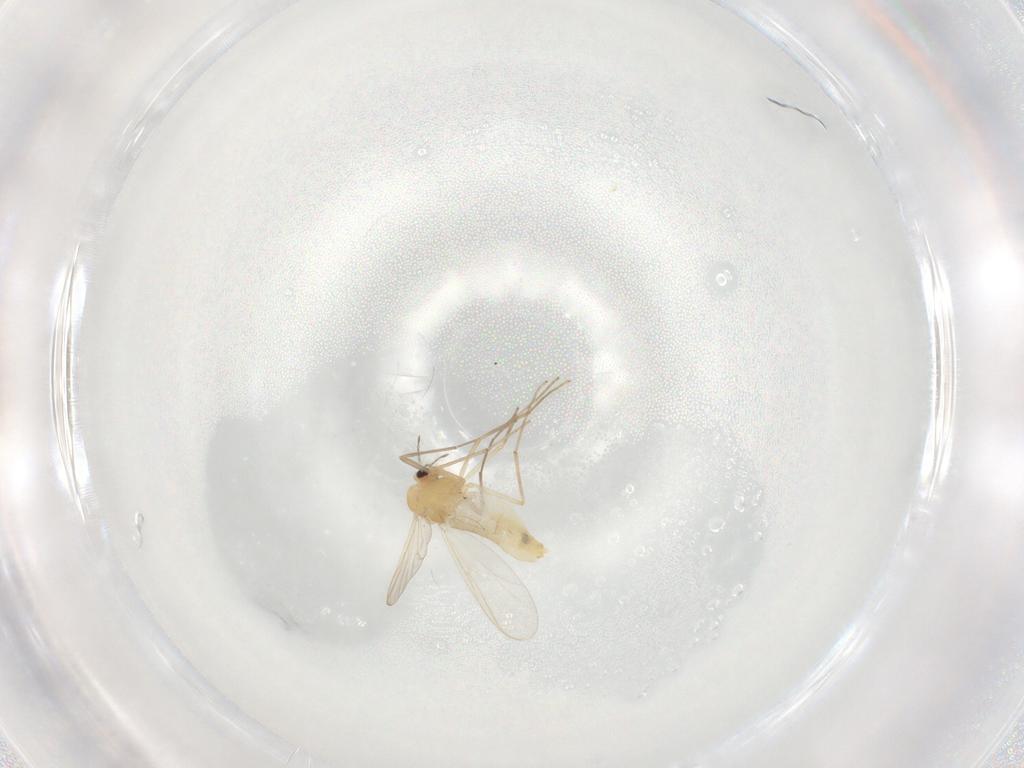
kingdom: Animalia
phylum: Arthropoda
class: Insecta
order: Diptera
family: Chironomidae
